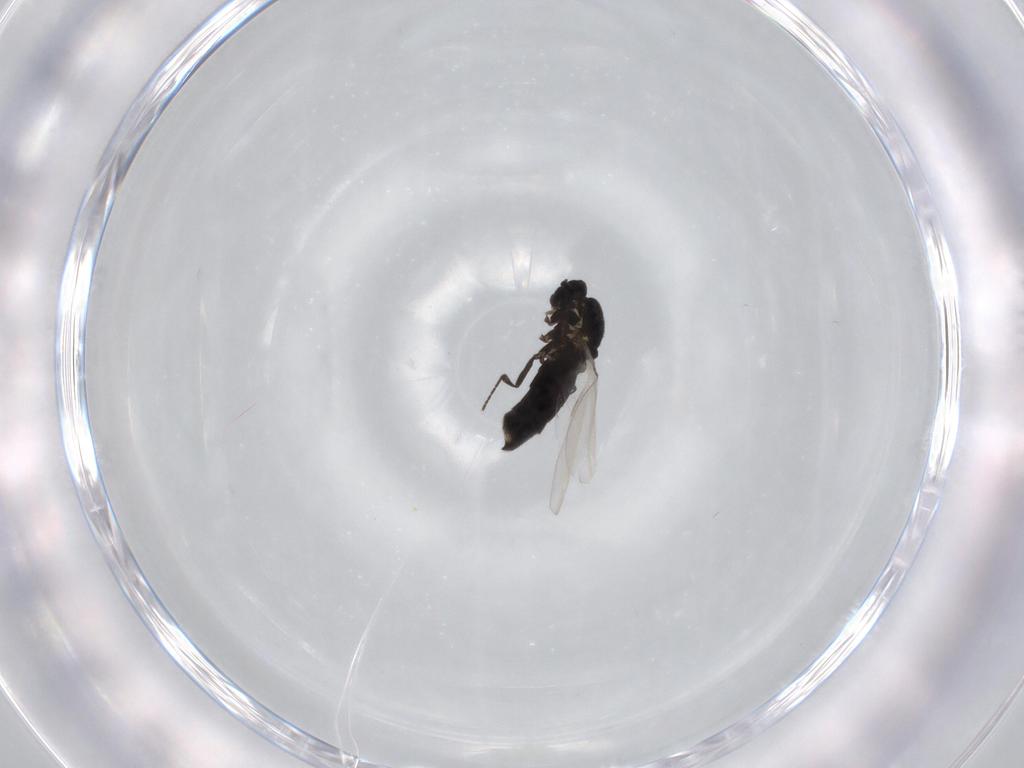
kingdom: Animalia
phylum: Arthropoda
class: Insecta
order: Diptera
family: Scatopsidae
